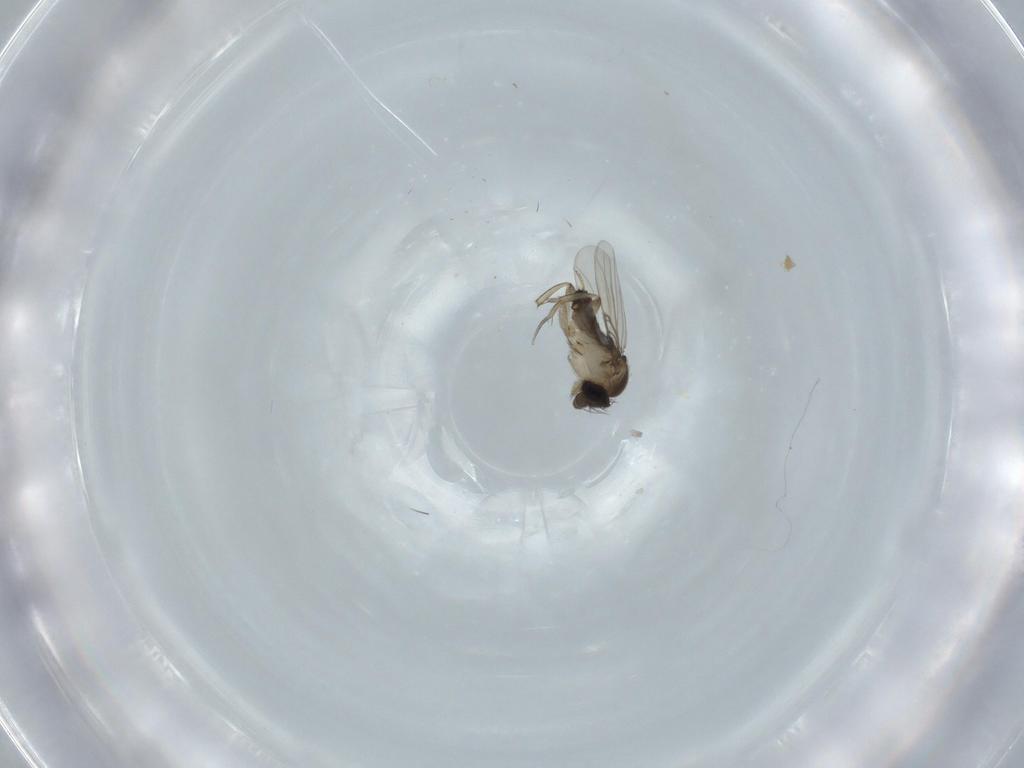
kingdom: Animalia
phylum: Arthropoda
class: Insecta
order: Diptera
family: Phoridae
